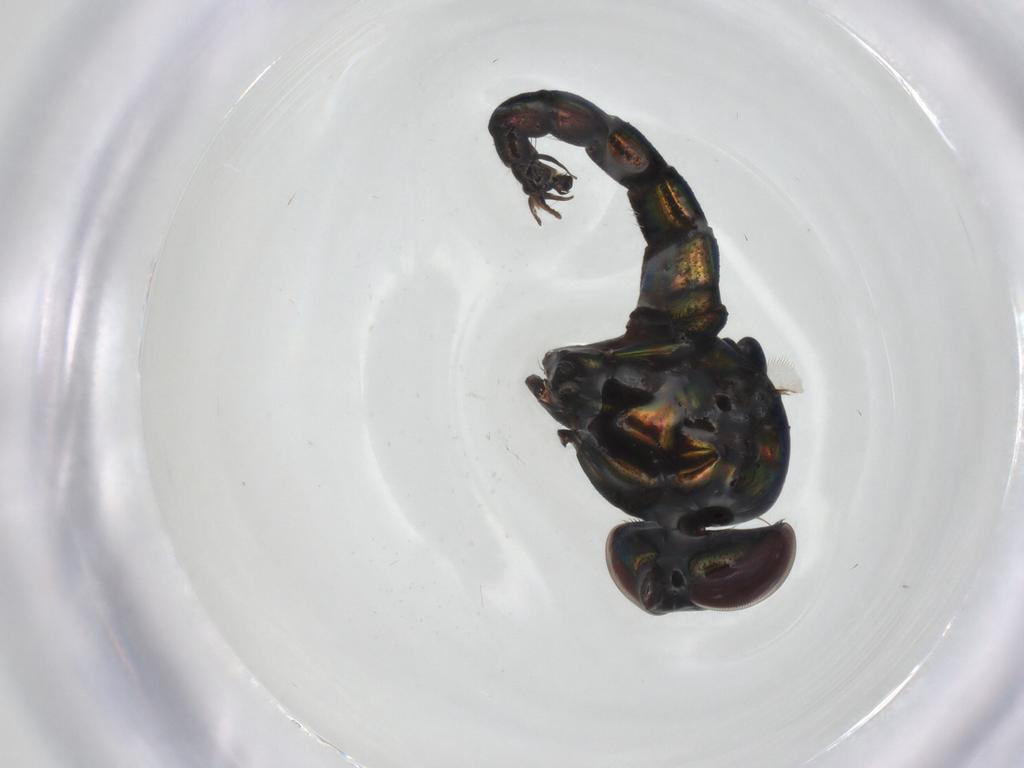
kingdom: Animalia
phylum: Arthropoda
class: Insecta
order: Diptera
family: Dolichopodidae
